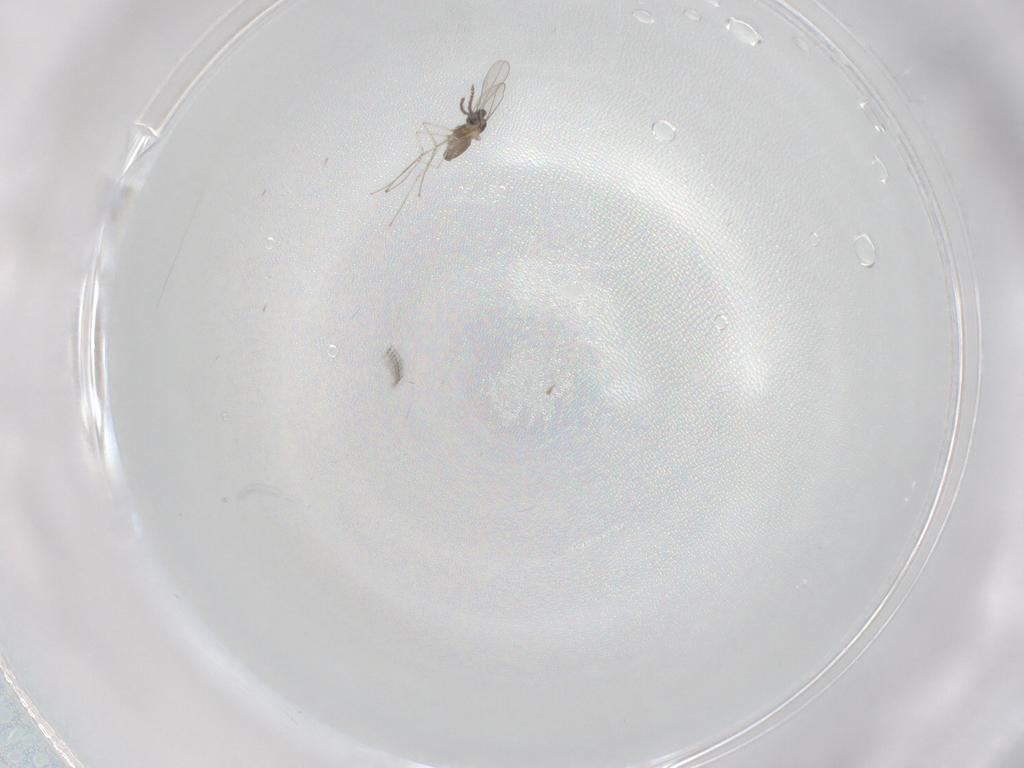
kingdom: Animalia
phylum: Arthropoda
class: Insecta
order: Diptera
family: Cecidomyiidae
